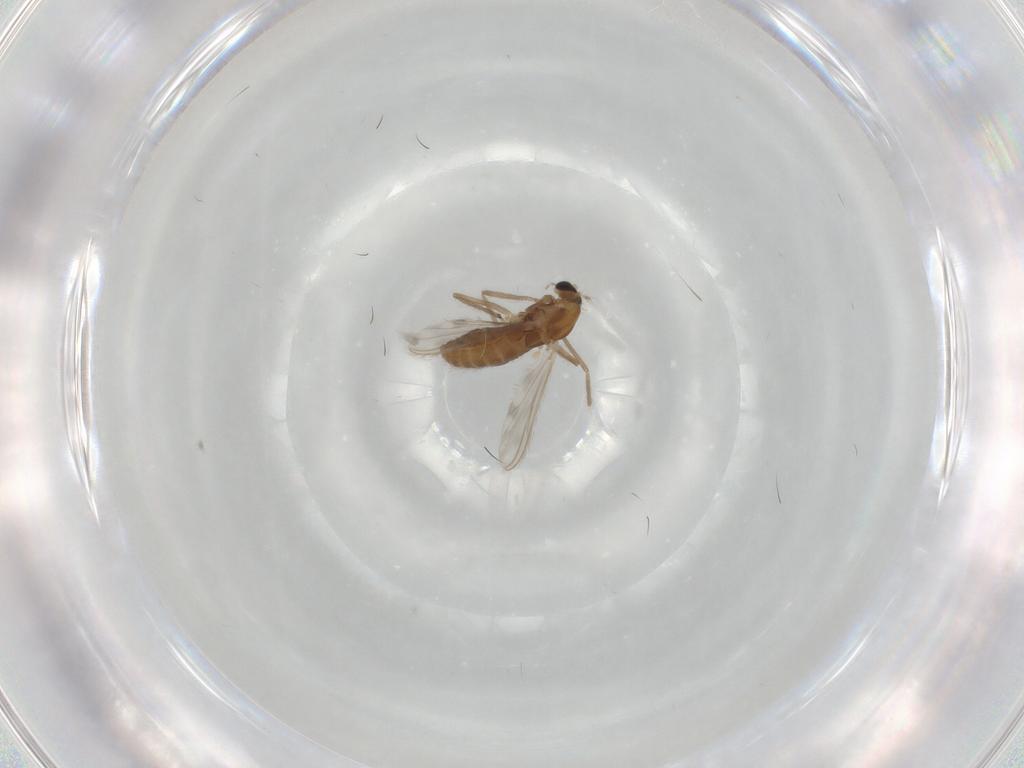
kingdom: Animalia
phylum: Arthropoda
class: Insecta
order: Diptera
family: Chironomidae
